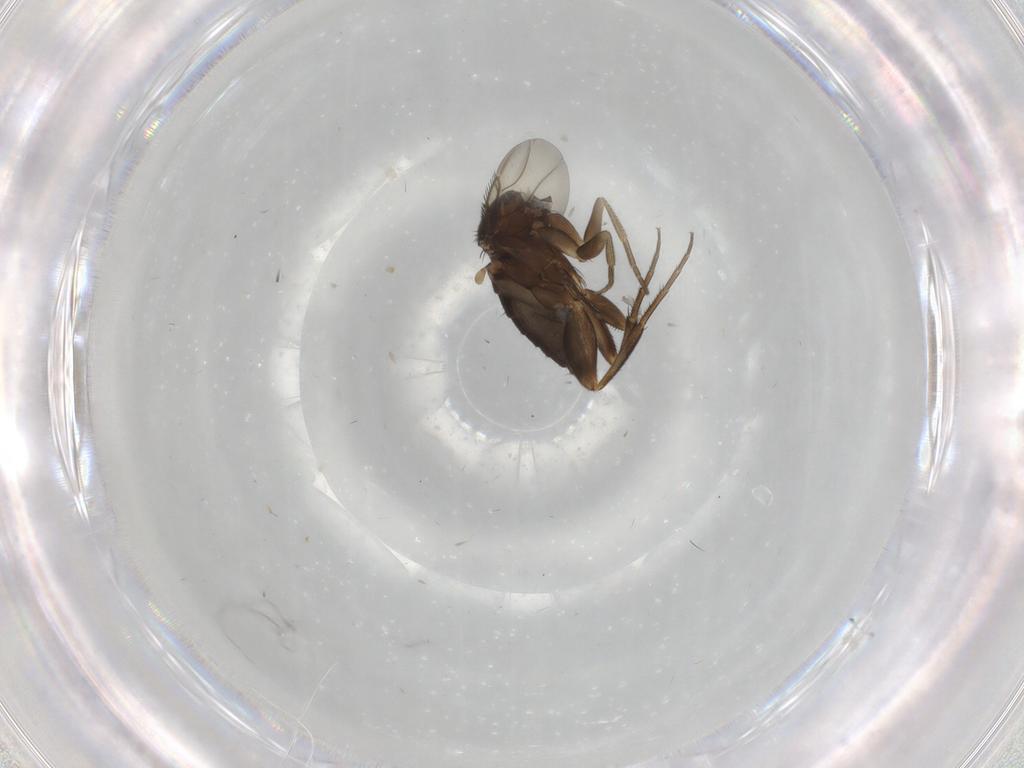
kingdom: Animalia
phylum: Arthropoda
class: Insecta
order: Diptera
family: Phoridae
